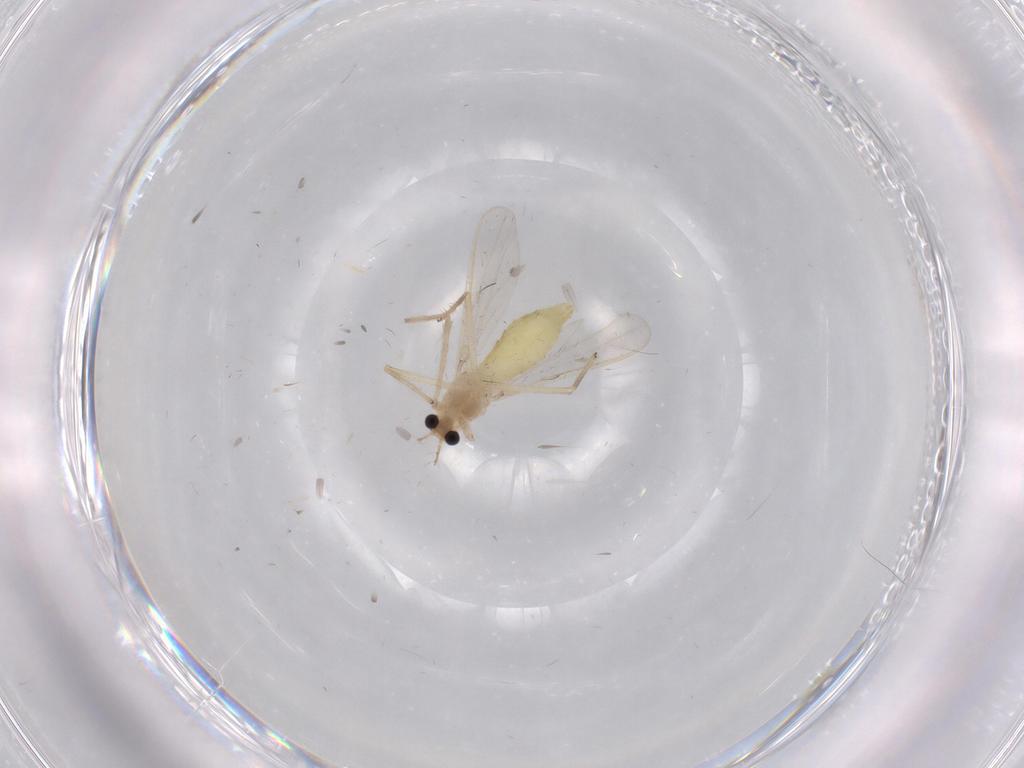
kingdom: Animalia
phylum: Arthropoda
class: Insecta
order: Diptera
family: Chironomidae
